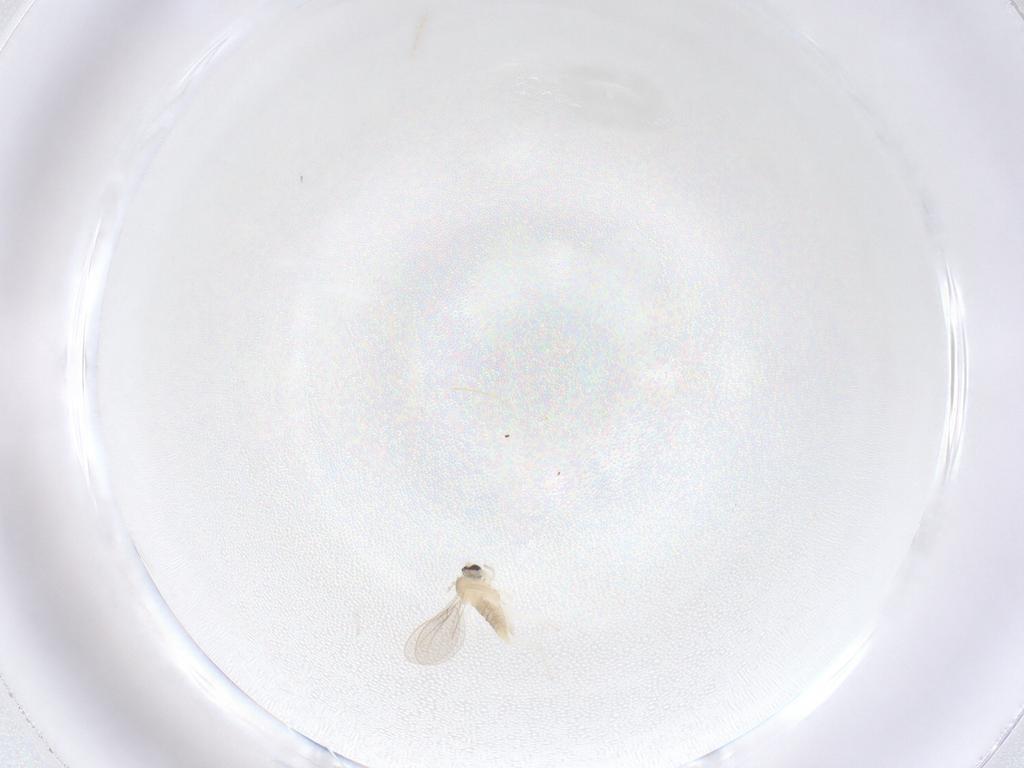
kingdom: Animalia
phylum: Arthropoda
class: Insecta
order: Diptera
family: Cecidomyiidae
